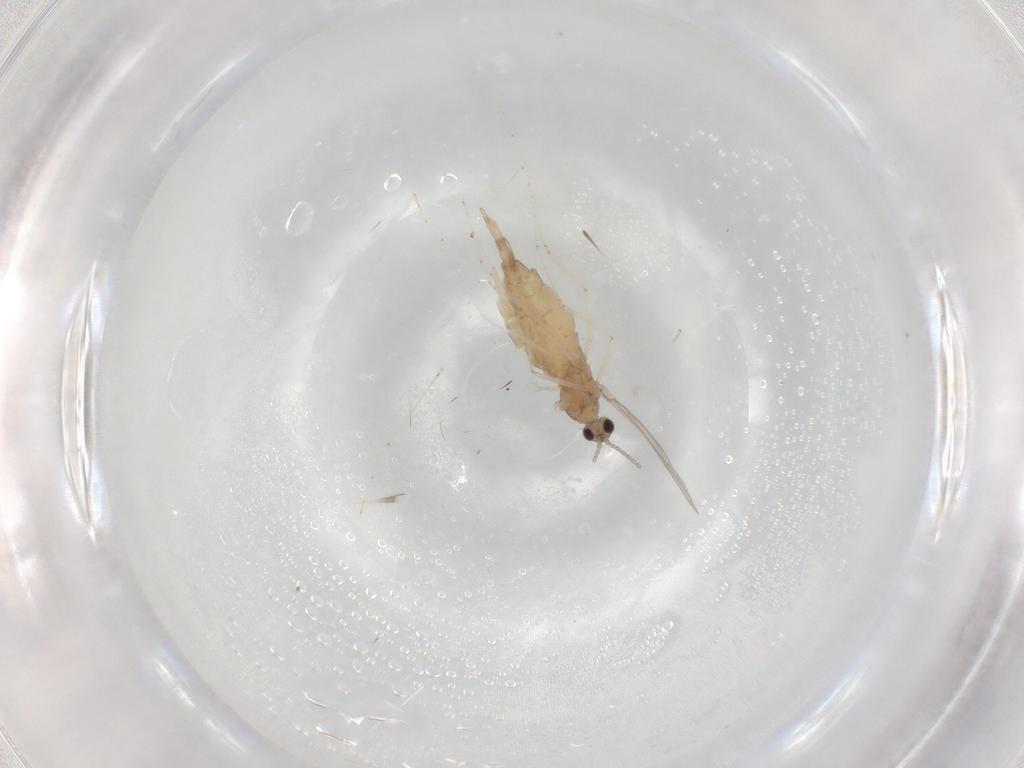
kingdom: Animalia
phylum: Arthropoda
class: Insecta
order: Diptera
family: Cecidomyiidae
